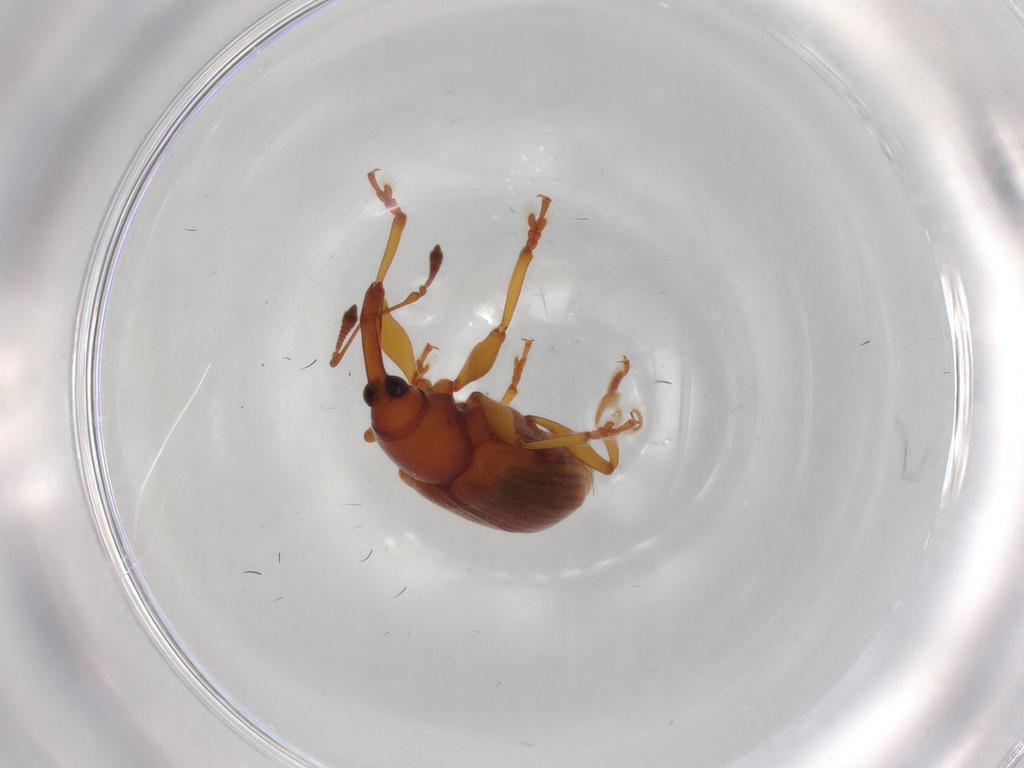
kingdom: Animalia
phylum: Arthropoda
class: Insecta
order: Coleoptera
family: Curculionidae
